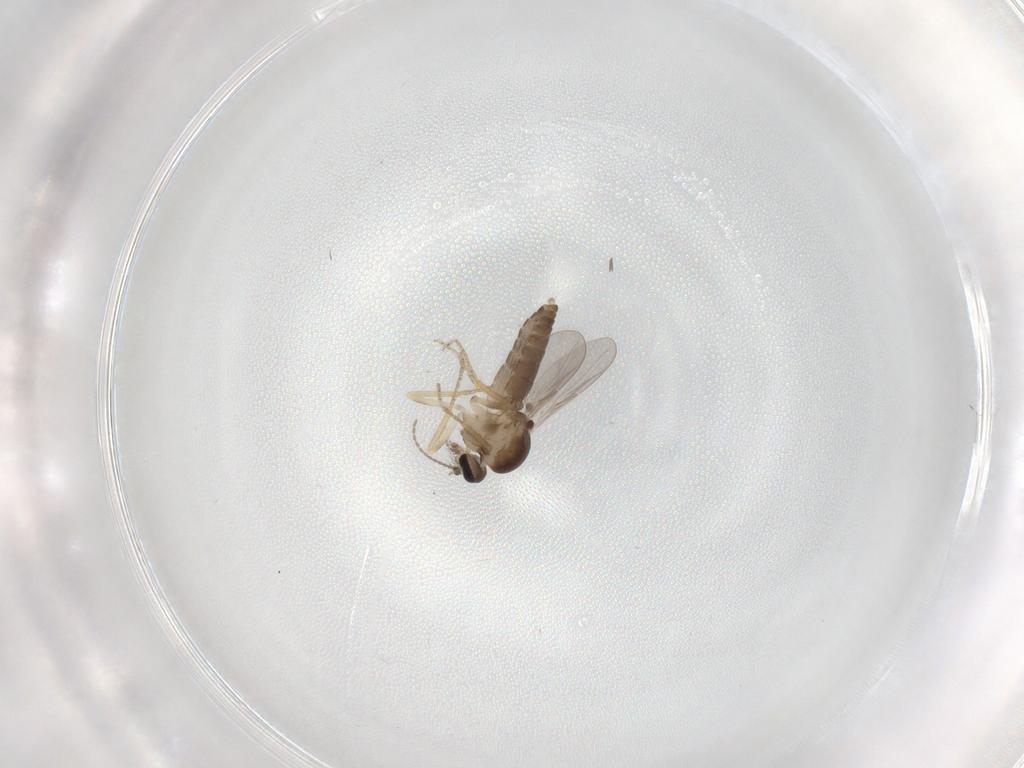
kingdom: Animalia
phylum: Arthropoda
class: Insecta
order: Diptera
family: Ceratopogonidae
